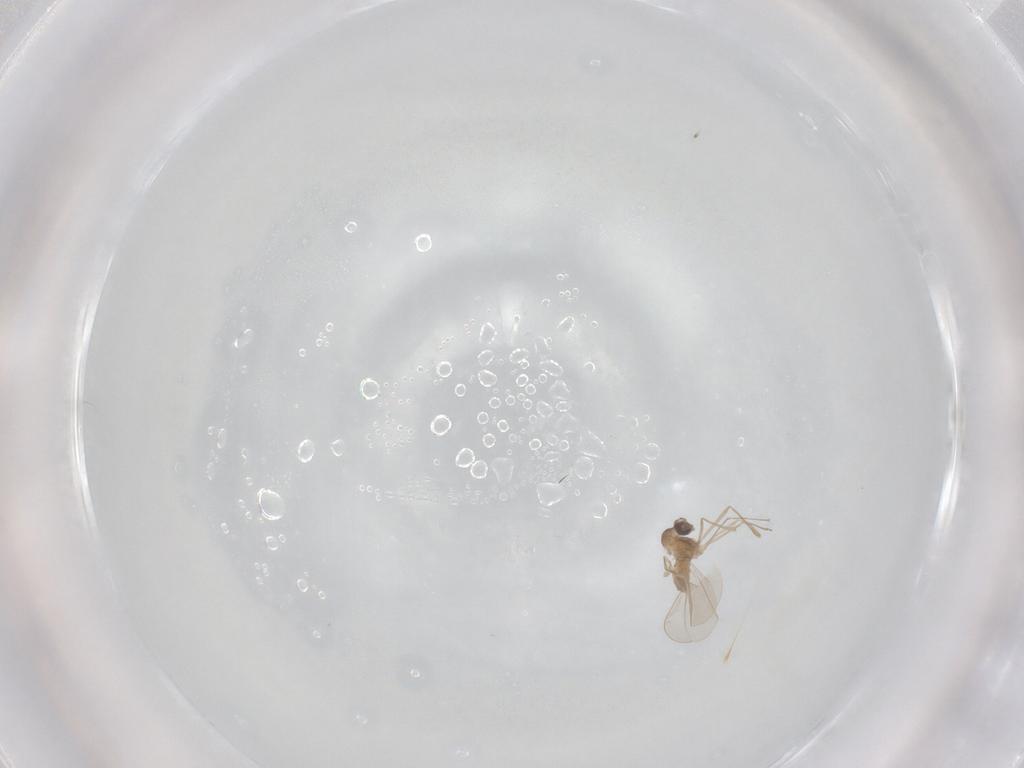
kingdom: Animalia
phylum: Arthropoda
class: Insecta
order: Diptera
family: Cecidomyiidae
